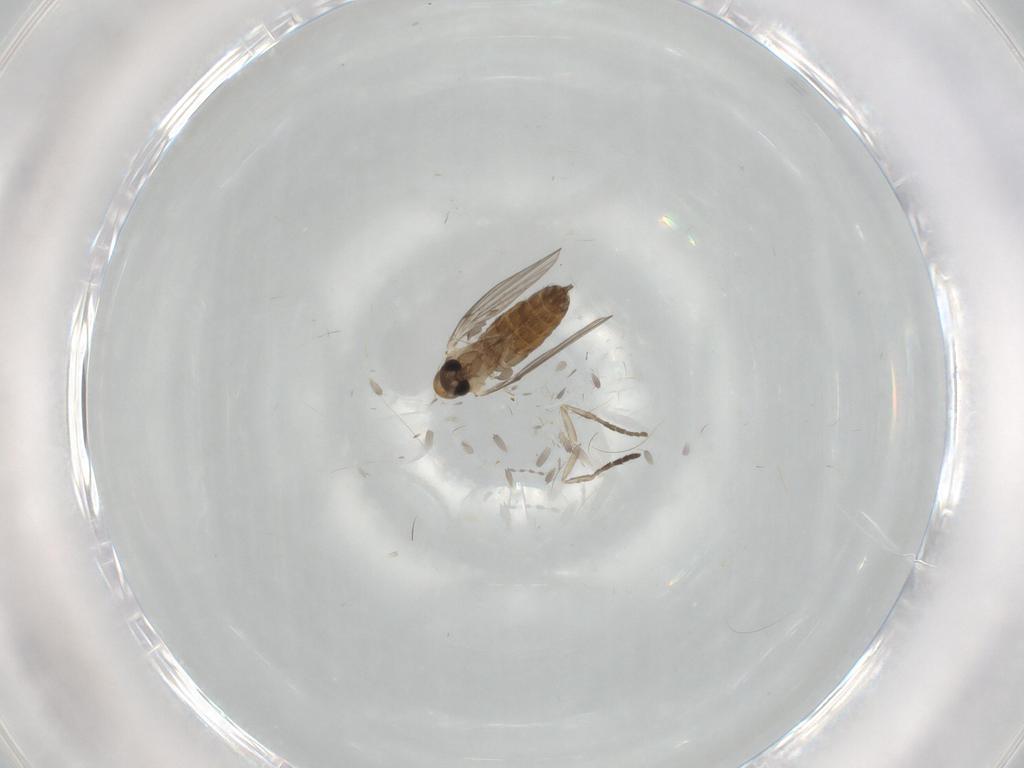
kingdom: Animalia
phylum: Arthropoda
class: Insecta
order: Diptera
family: Psychodidae
